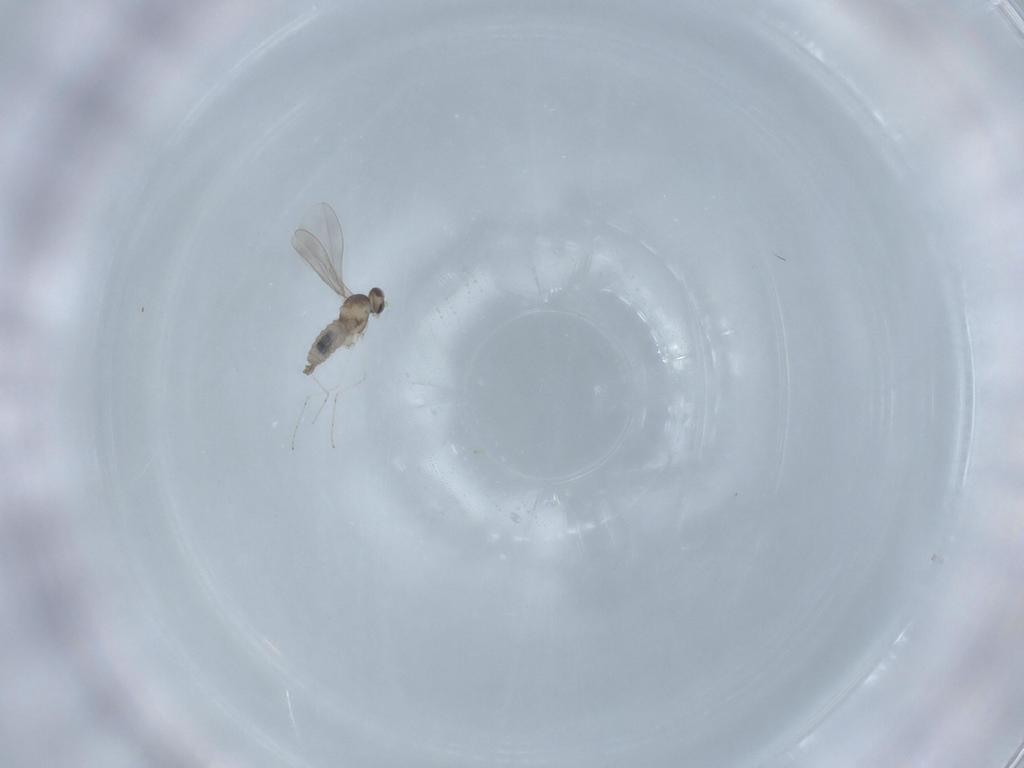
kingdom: Animalia
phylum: Arthropoda
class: Insecta
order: Diptera
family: Cecidomyiidae
